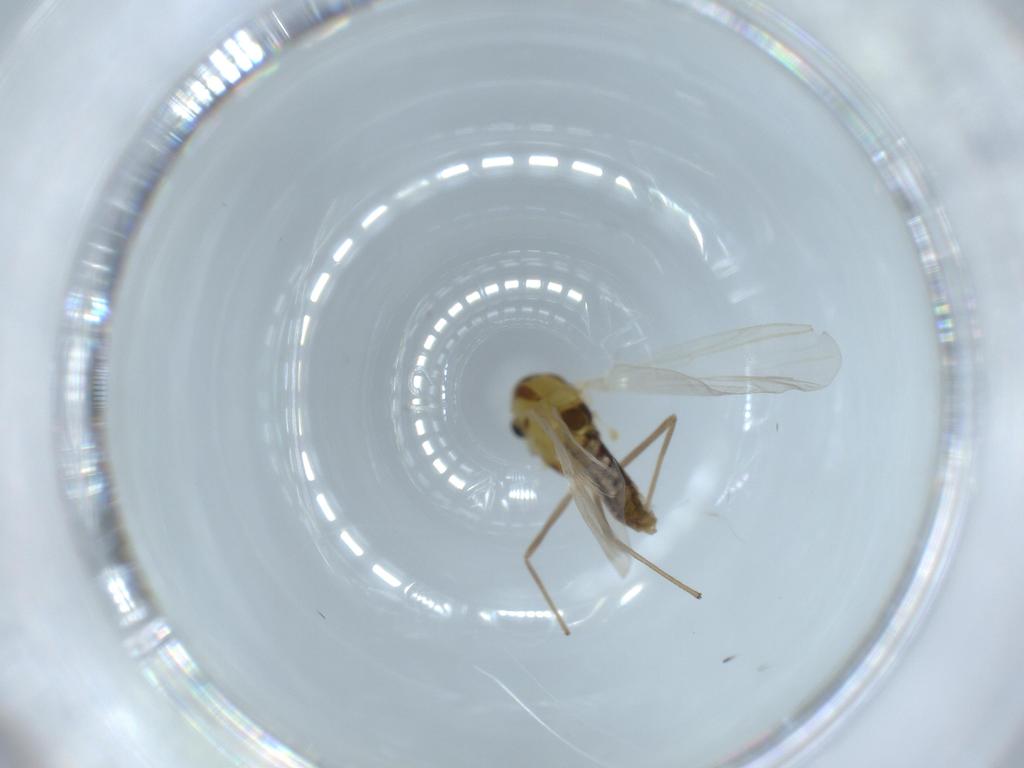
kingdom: Animalia
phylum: Arthropoda
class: Insecta
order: Diptera
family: Chironomidae
